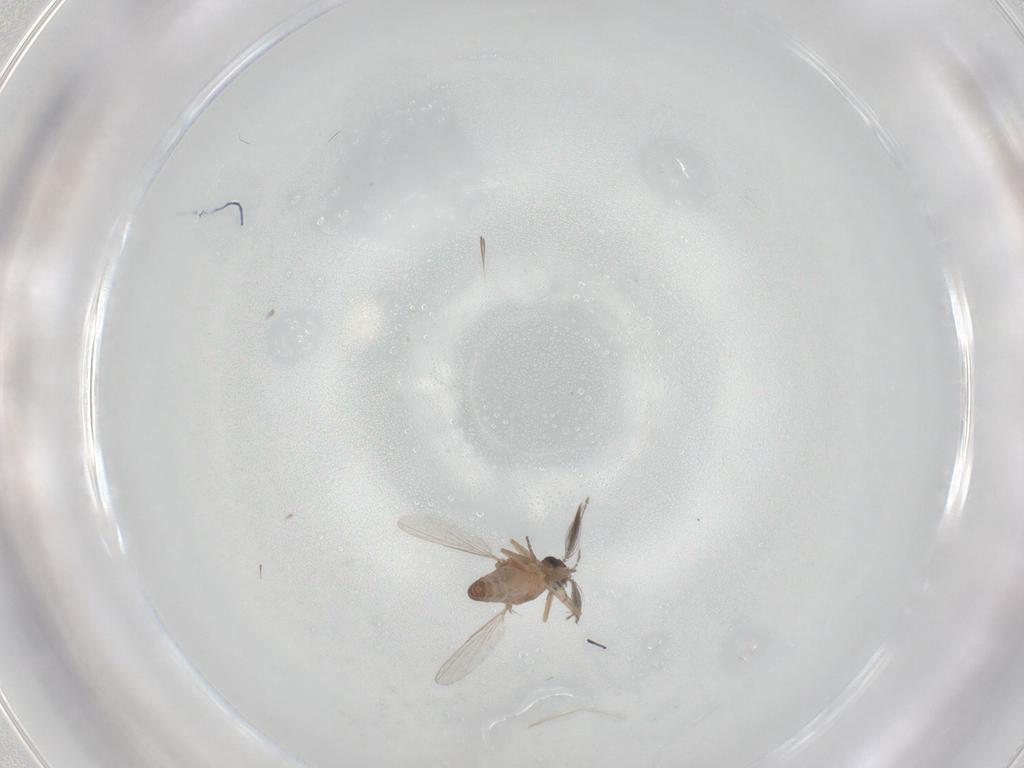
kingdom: Animalia
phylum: Arthropoda
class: Insecta
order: Diptera
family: Ceratopogonidae
